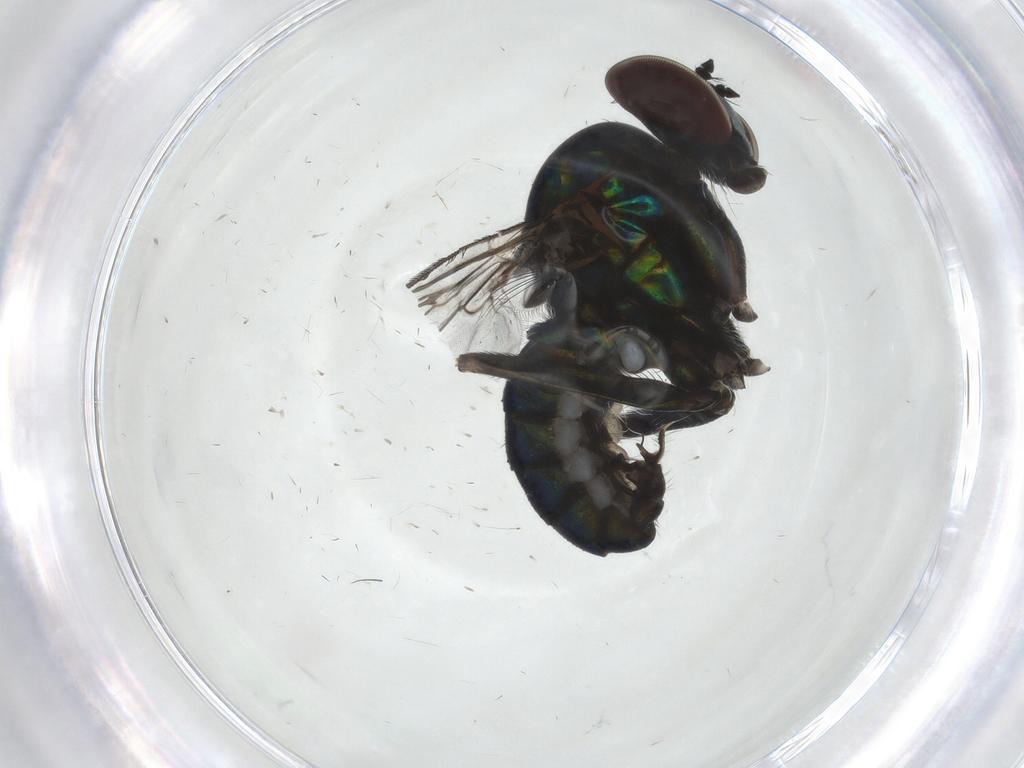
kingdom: Animalia
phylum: Arthropoda
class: Insecta
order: Diptera
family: Dolichopodidae
